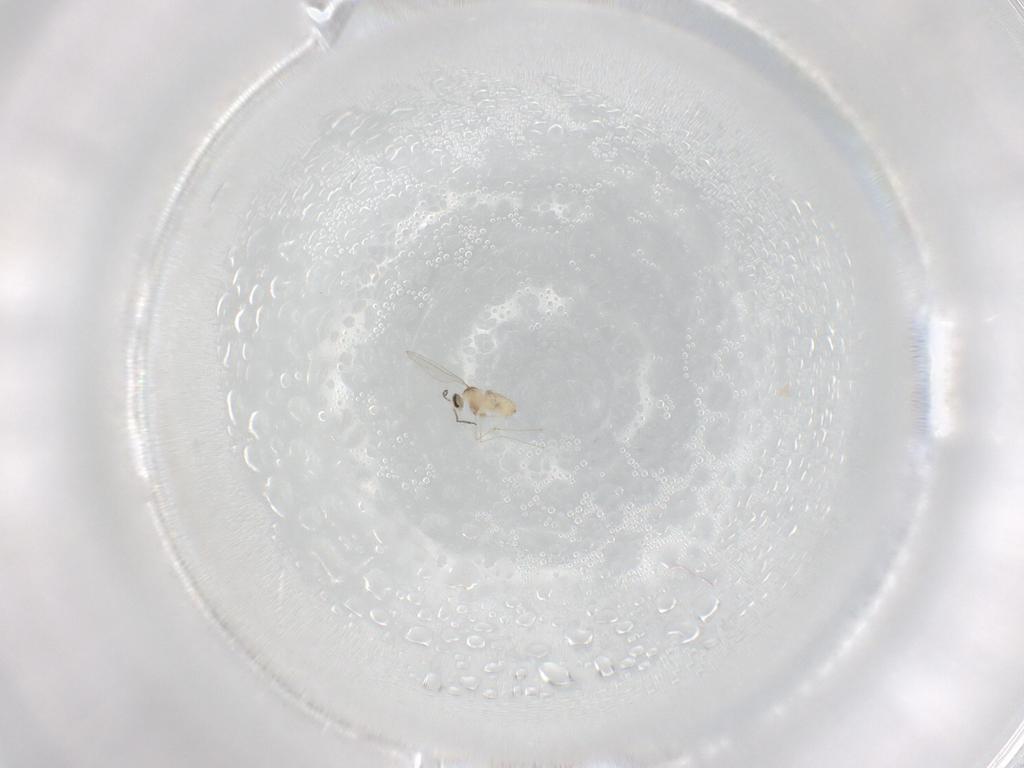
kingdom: Animalia
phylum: Arthropoda
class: Insecta
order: Diptera
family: Cecidomyiidae
